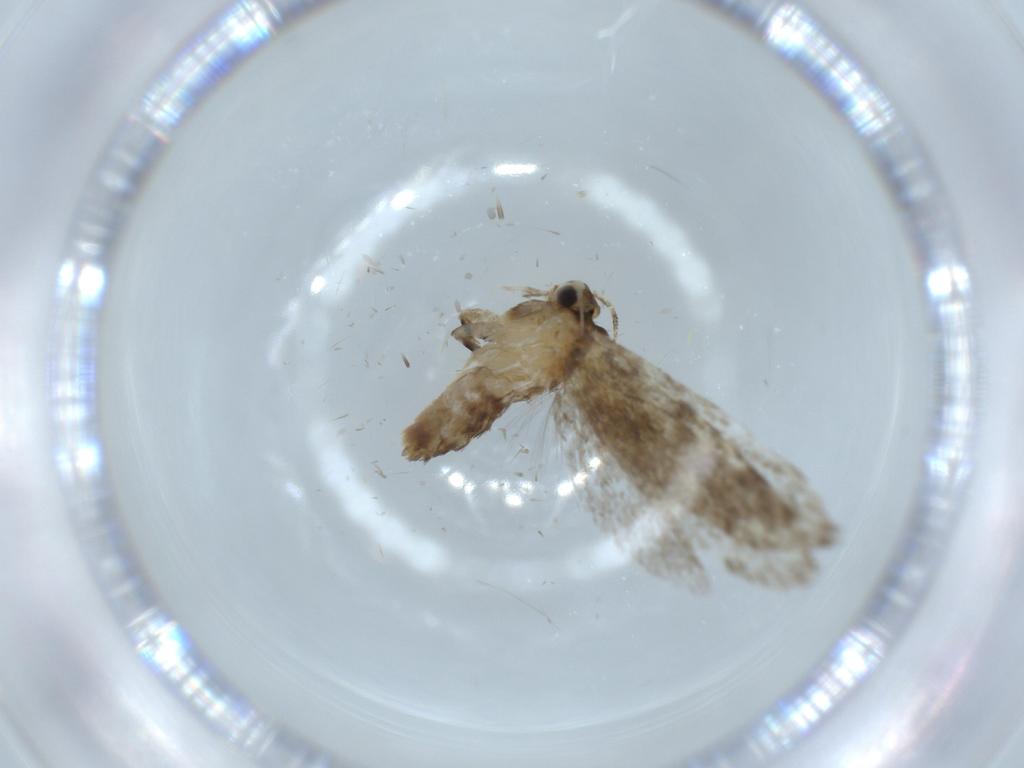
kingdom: Animalia
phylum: Arthropoda
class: Insecta
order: Lepidoptera
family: Tineidae
